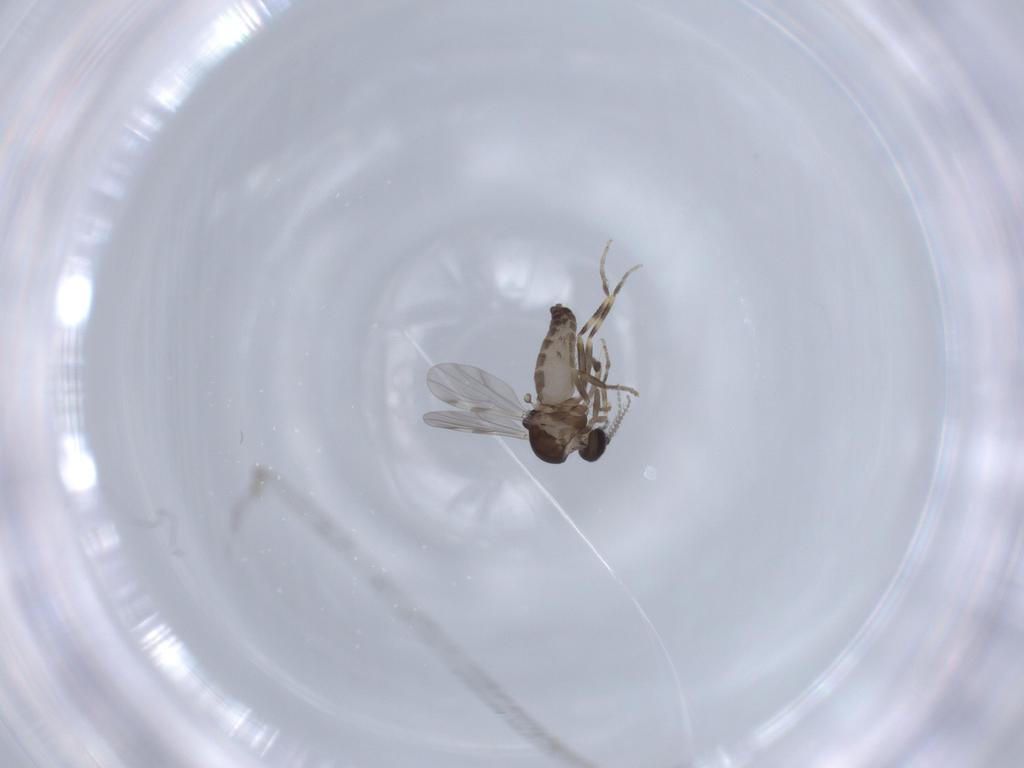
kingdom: Animalia
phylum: Arthropoda
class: Insecta
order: Diptera
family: Ceratopogonidae
